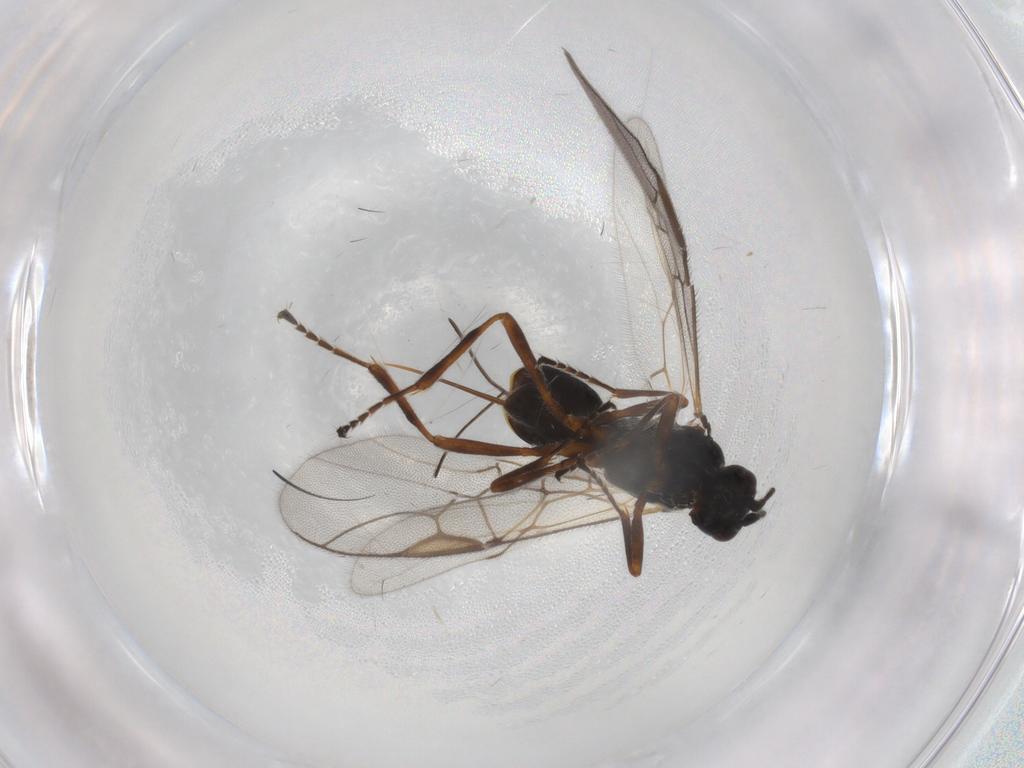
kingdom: Animalia
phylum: Arthropoda
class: Insecta
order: Hymenoptera
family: Braconidae
